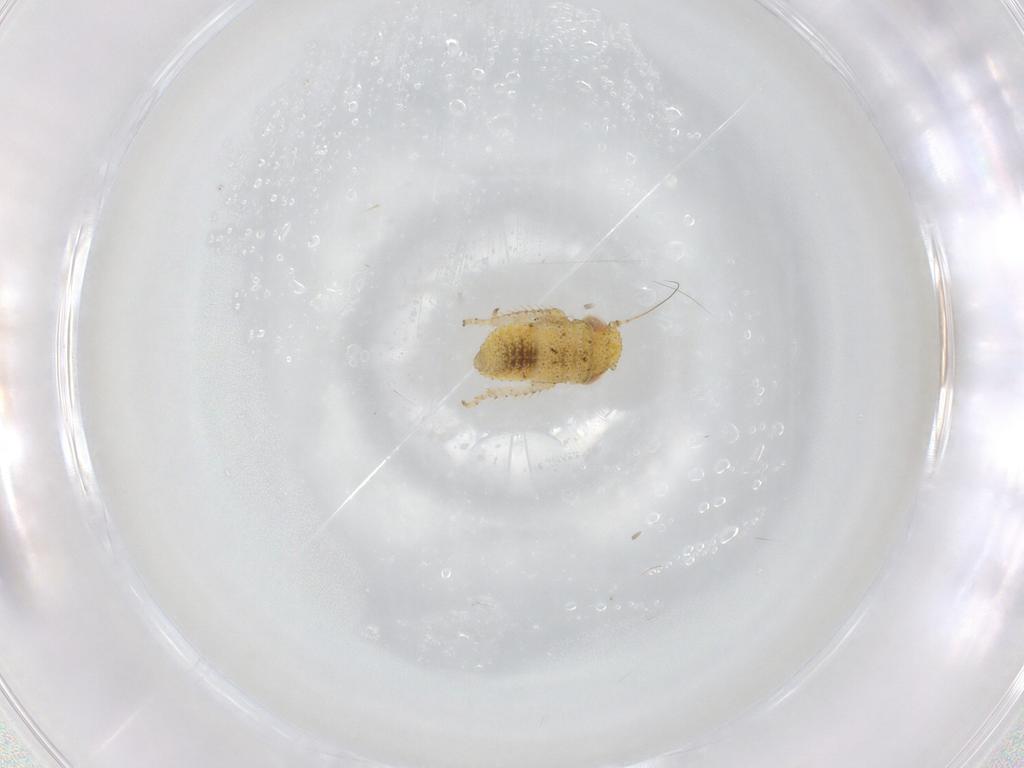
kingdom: Animalia
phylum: Arthropoda
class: Insecta
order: Hemiptera
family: Cicadellidae
